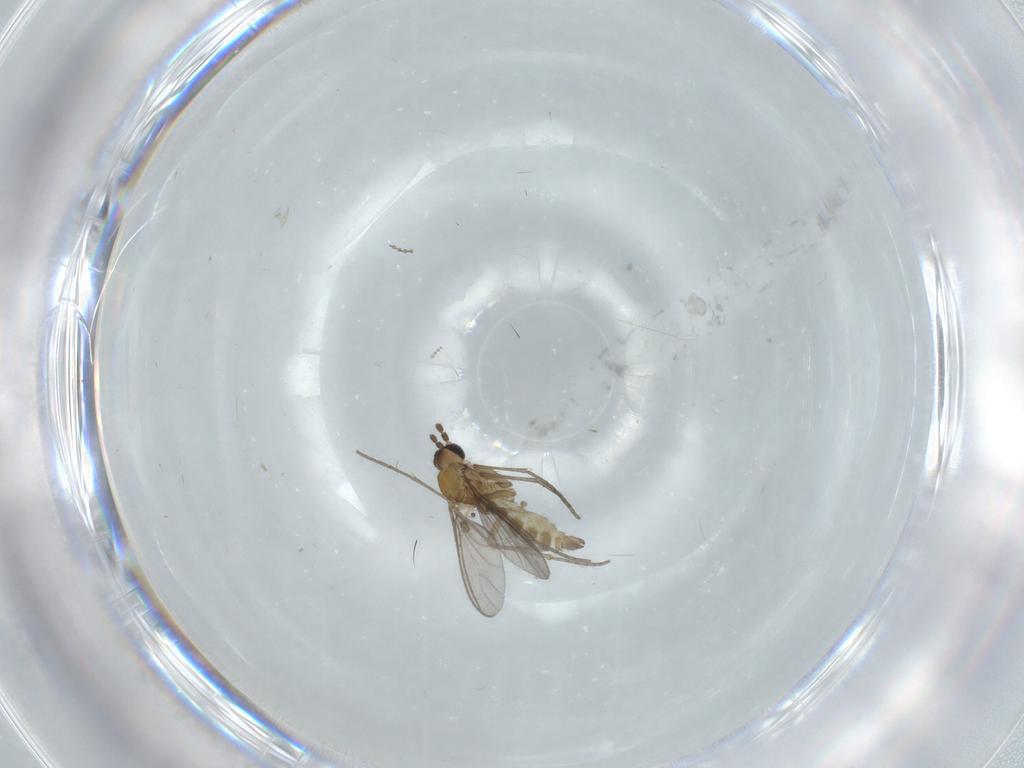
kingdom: Animalia
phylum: Arthropoda
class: Insecta
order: Diptera
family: Sciaridae
